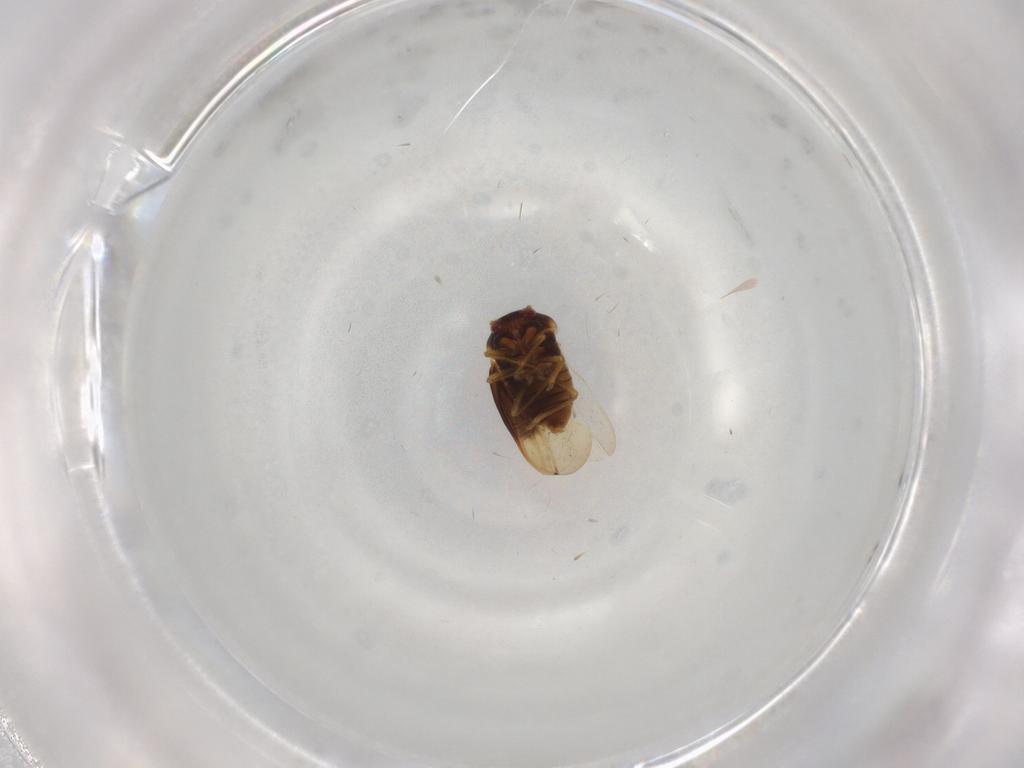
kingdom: Animalia
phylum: Arthropoda
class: Insecta
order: Hemiptera
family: Schizopteridae
